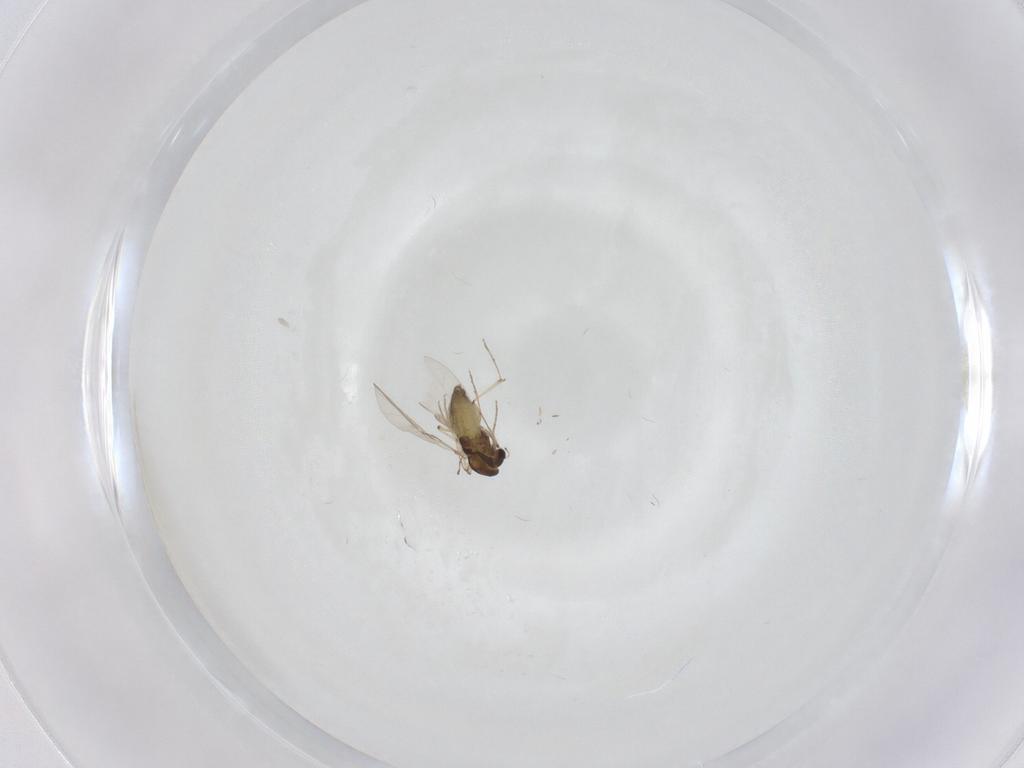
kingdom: Animalia
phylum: Arthropoda
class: Insecta
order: Diptera
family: Chironomidae
